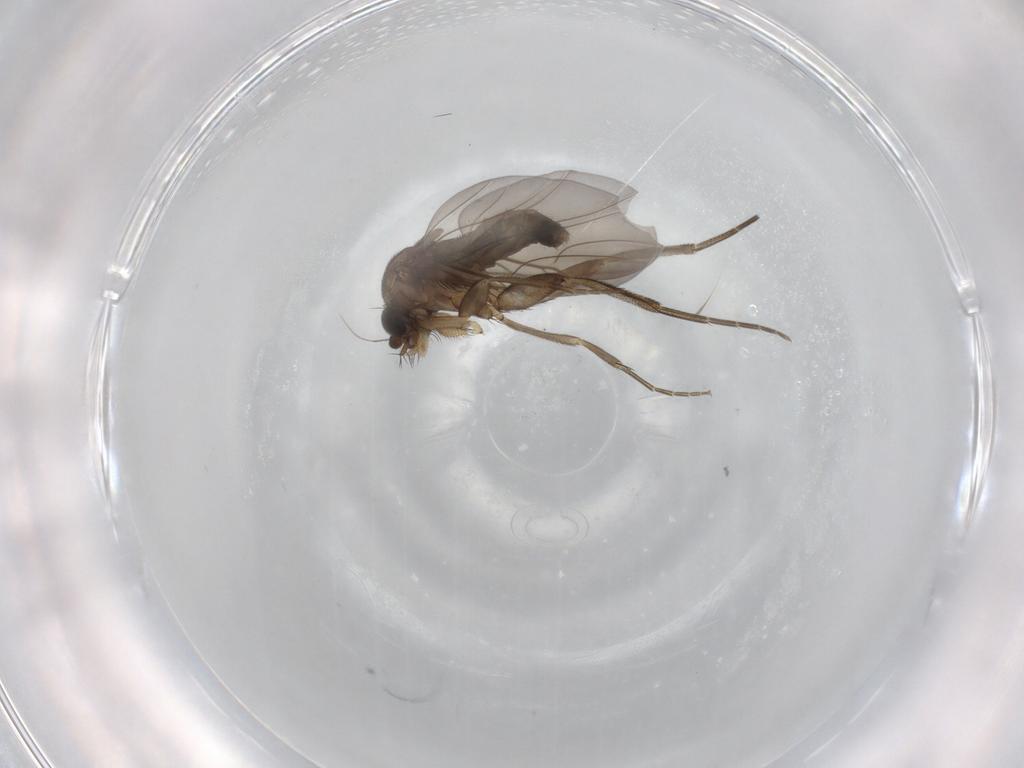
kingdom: Animalia
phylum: Arthropoda
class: Insecta
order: Diptera
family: Phoridae
